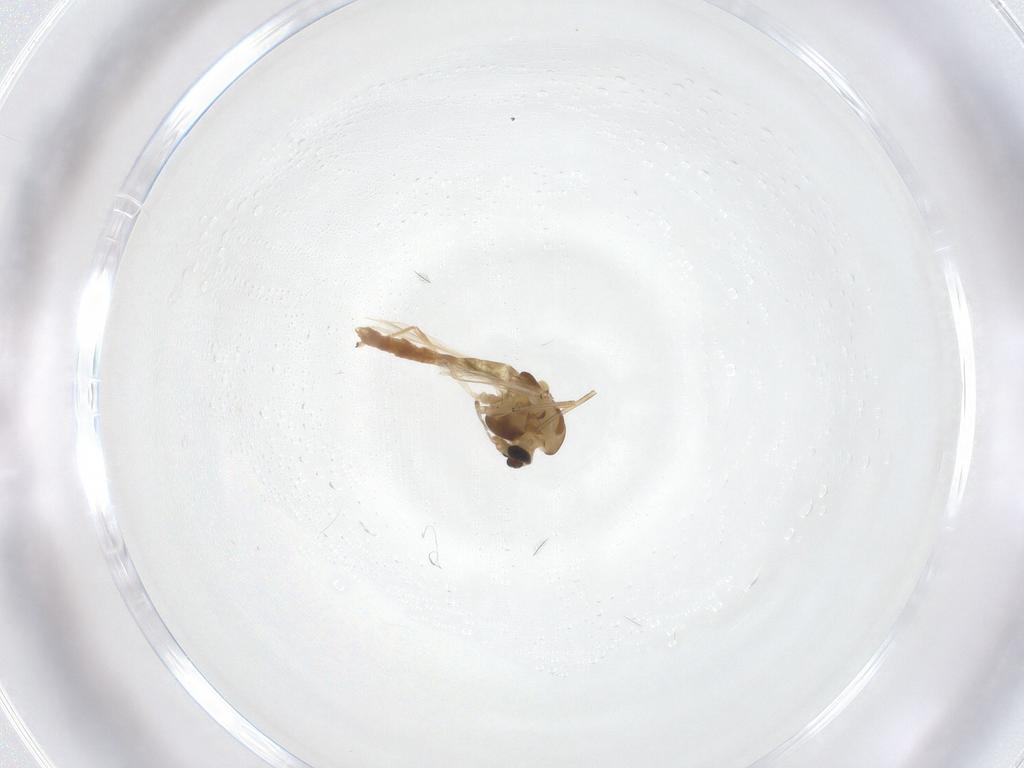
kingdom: Animalia
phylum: Arthropoda
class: Insecta
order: Diptera
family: Chironomidae
